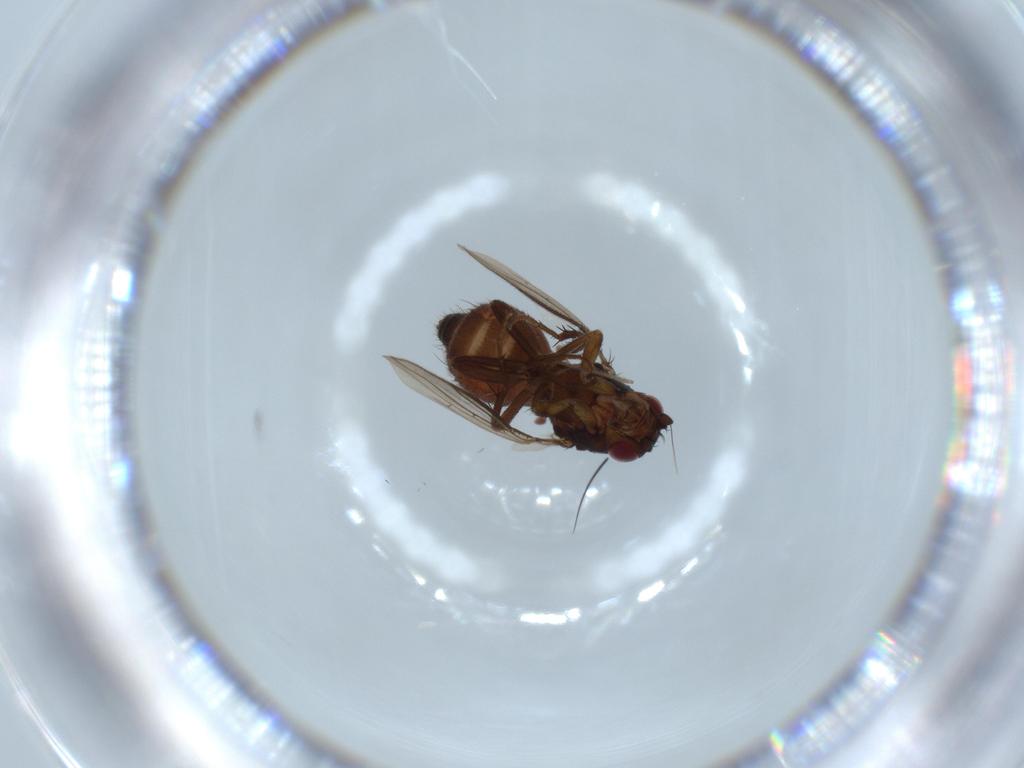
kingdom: Animalia
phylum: Arthropoda
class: Insecta
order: Diptera
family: Sphaeroceridae
